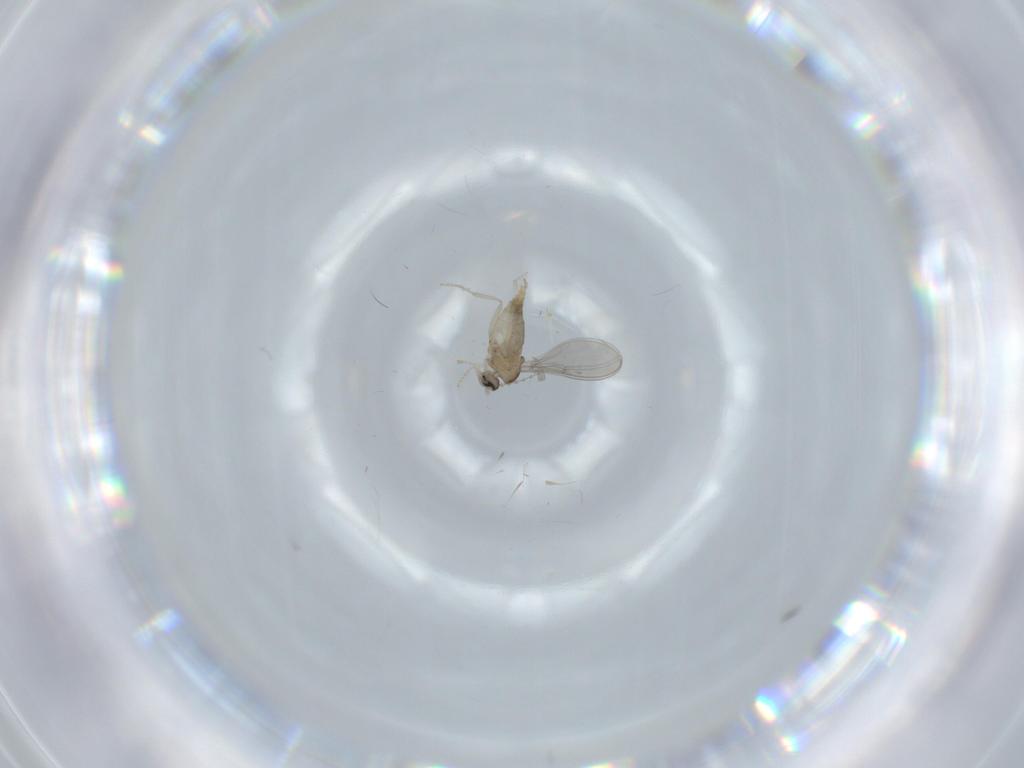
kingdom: Animalia
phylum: Arthropoda
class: Insecta
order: Diptera
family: Cecidomyiidae
